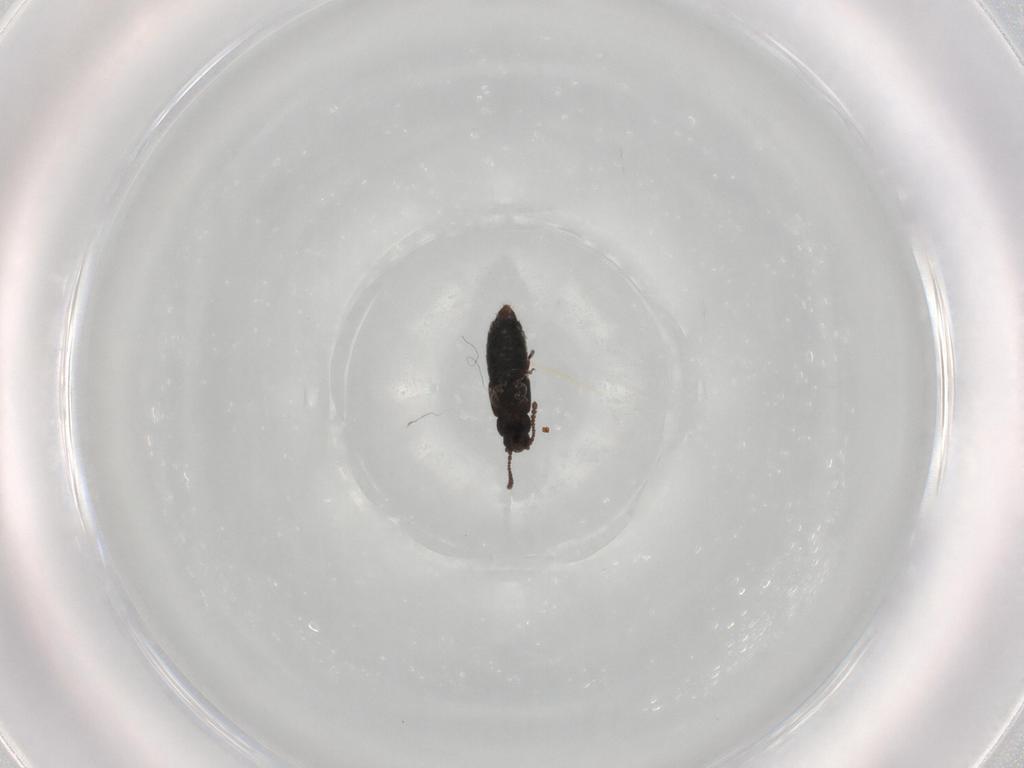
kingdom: Animalia
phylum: Arthropoda
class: Insecta
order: Coleoptera
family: Staphylinidae
